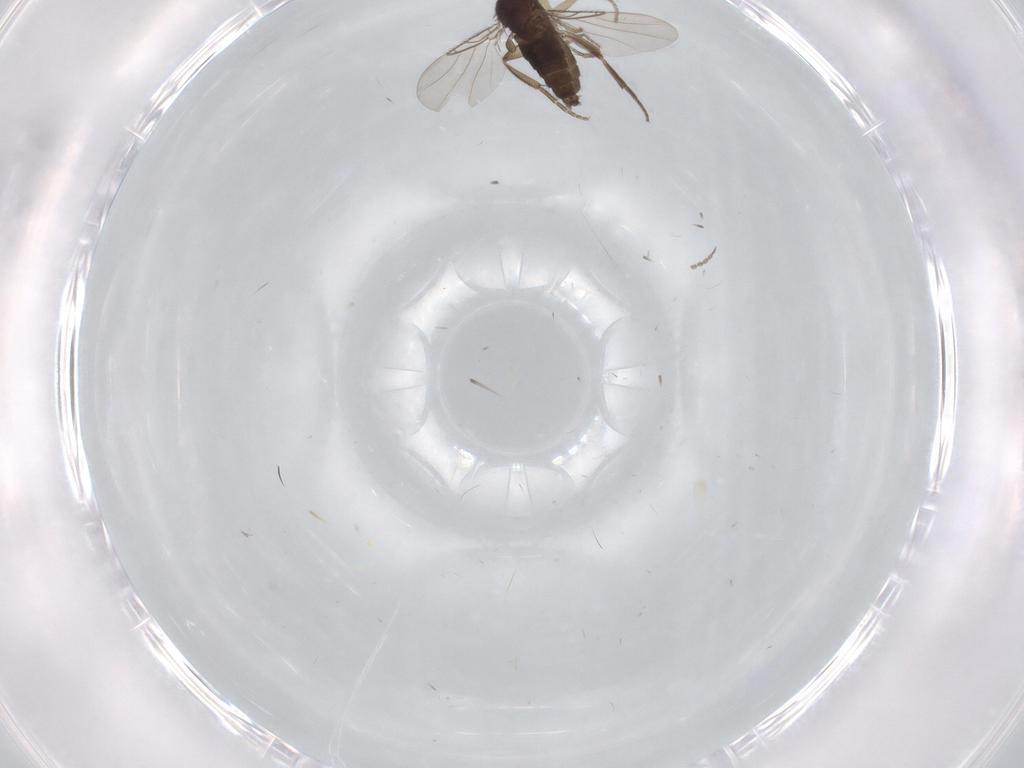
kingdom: Animalia
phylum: Arthropoda
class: Insecta
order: Diptera
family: Phoridae
